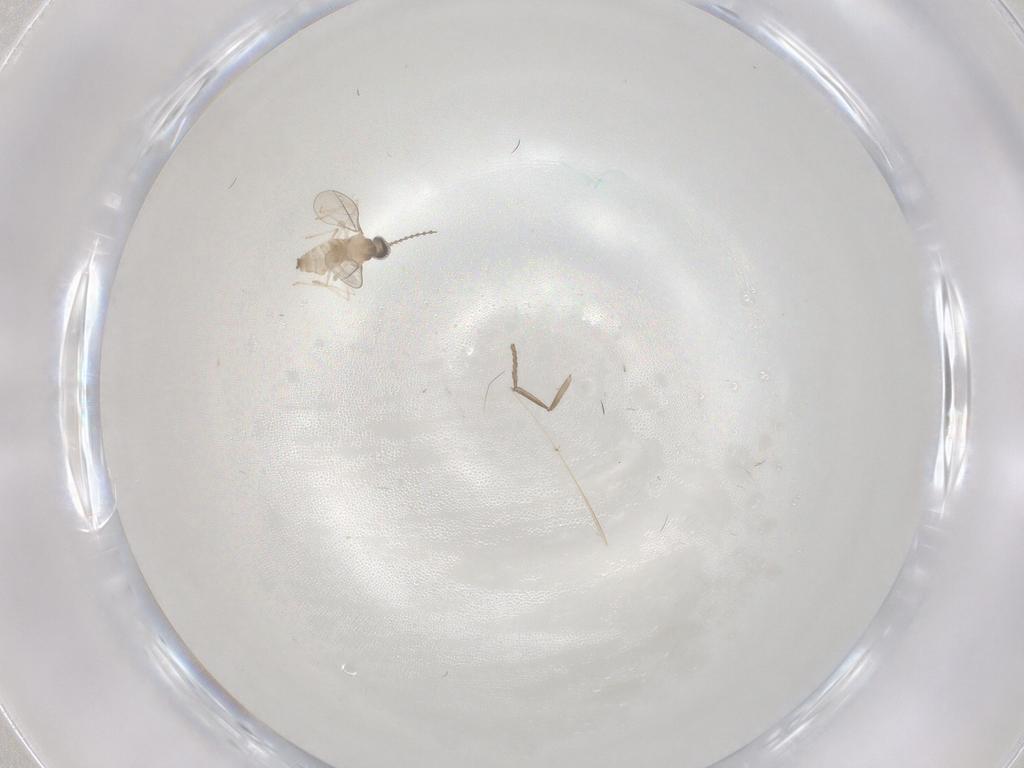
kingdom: Animalia
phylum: Arthropoda
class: Insecta
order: Diptera
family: Cecidomyiidae
